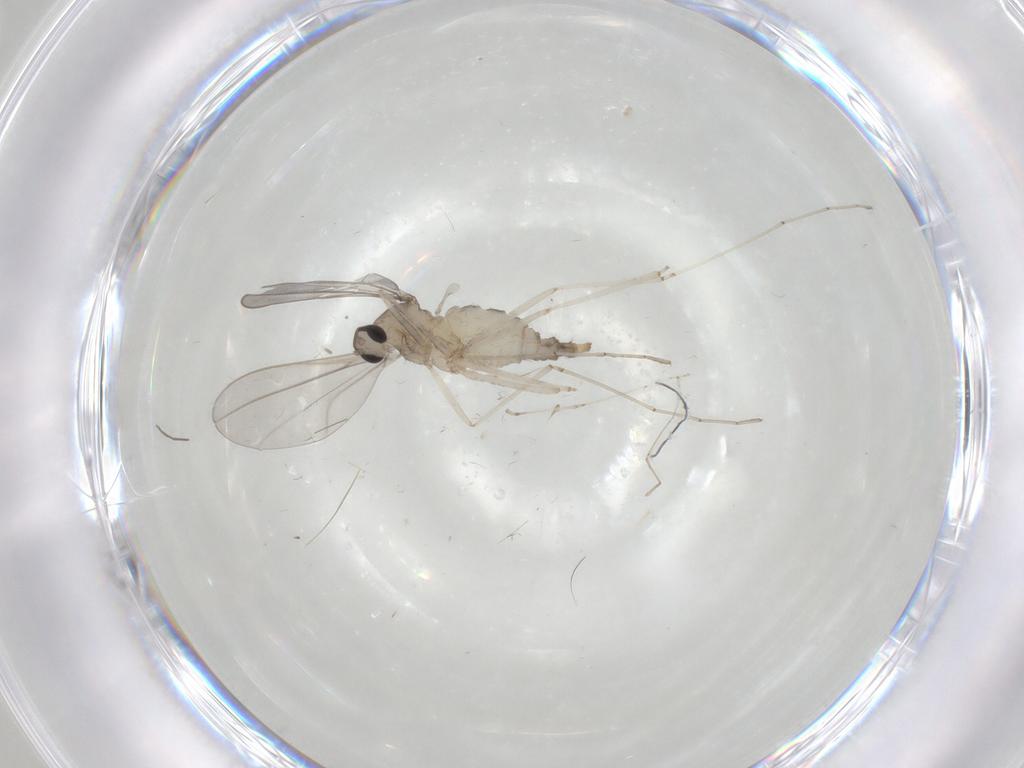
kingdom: Animalia
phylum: Arthropoda
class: Insecta
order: Diptera
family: Cecidomyiidae
